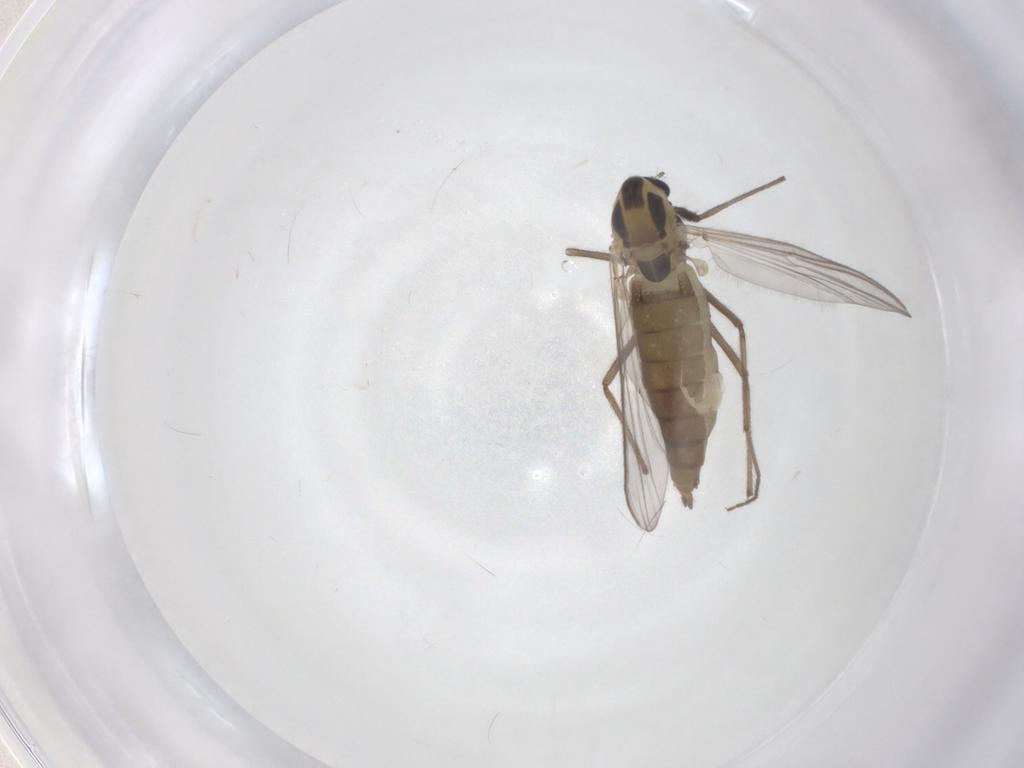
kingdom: Animalia
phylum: Arthropoda
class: Insecta
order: Diptera
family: Chironomidae
